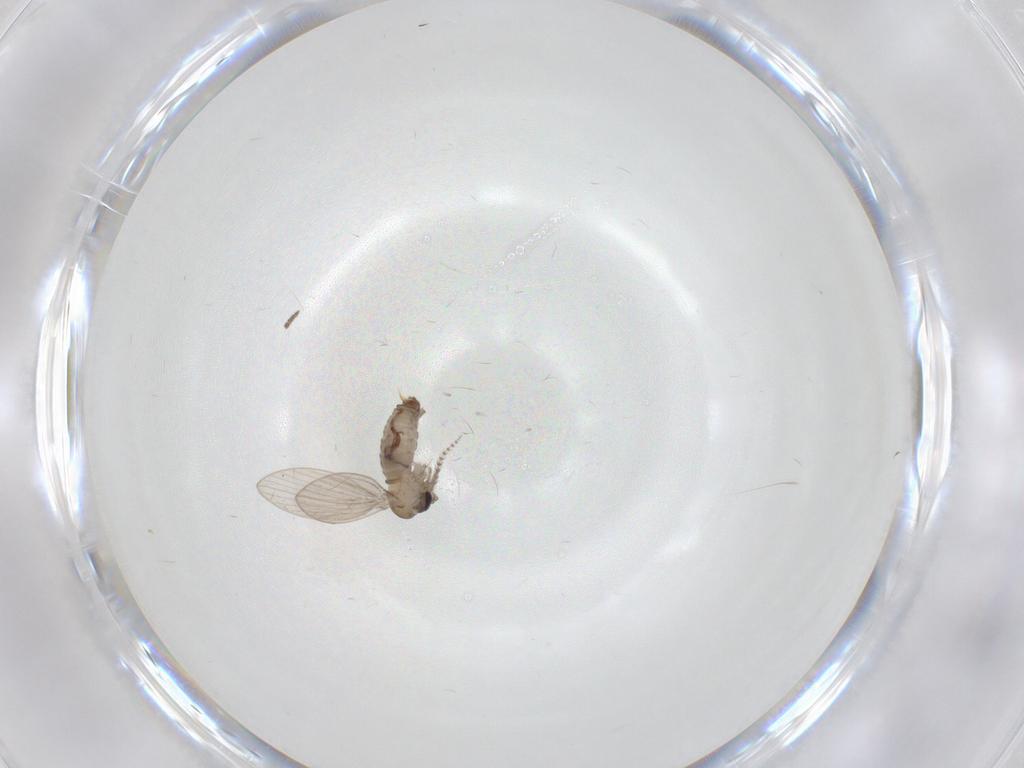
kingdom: Animalia
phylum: Arthropoda
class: Insecta
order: Diptera
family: Psychodidae
